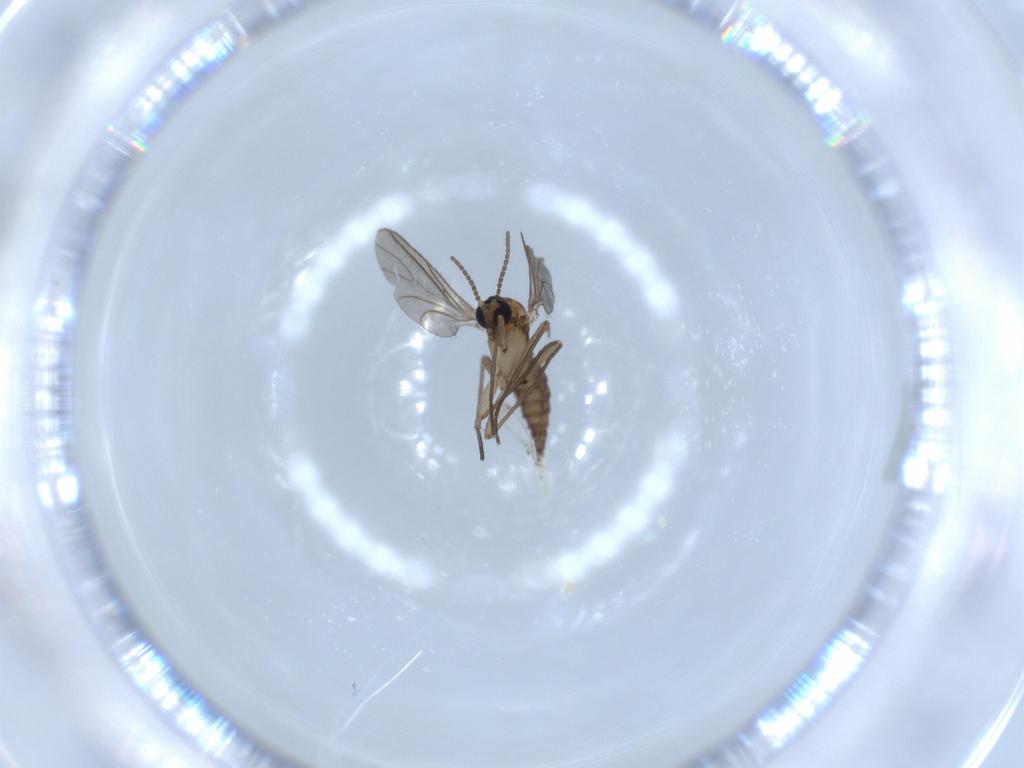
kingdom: Animalia
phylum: Arthropoda
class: Insecta
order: Diptera
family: Sciaridae
